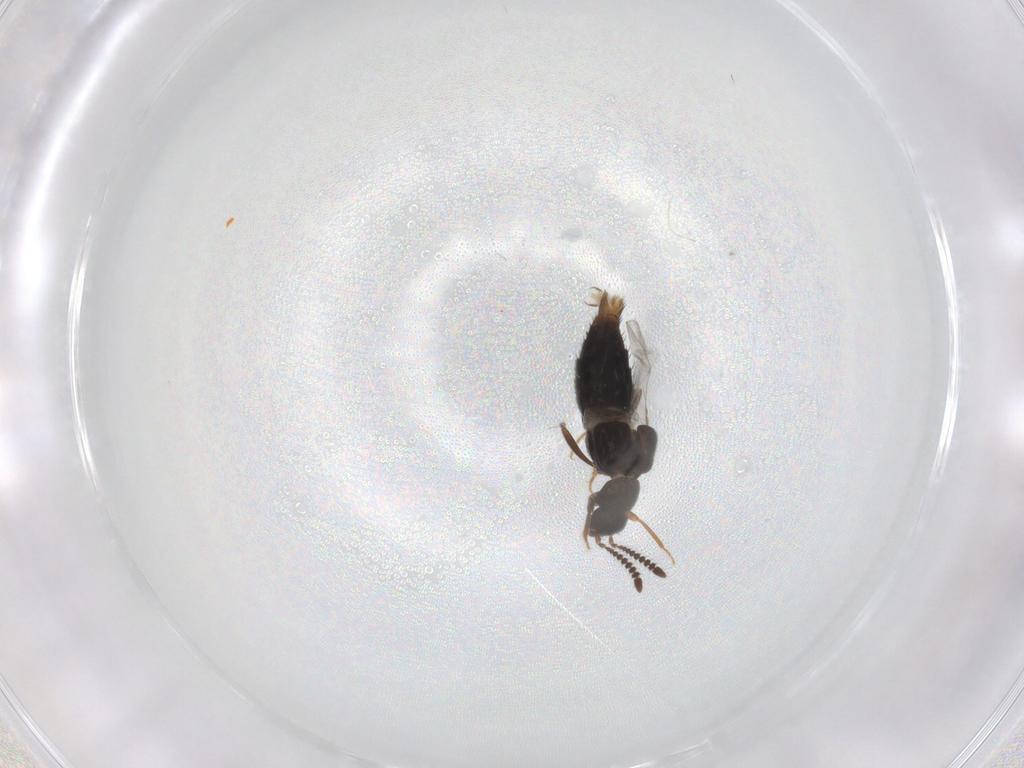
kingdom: Animalia
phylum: Arthropoda
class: Insecta
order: Coleoptera
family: Staphylinidae
